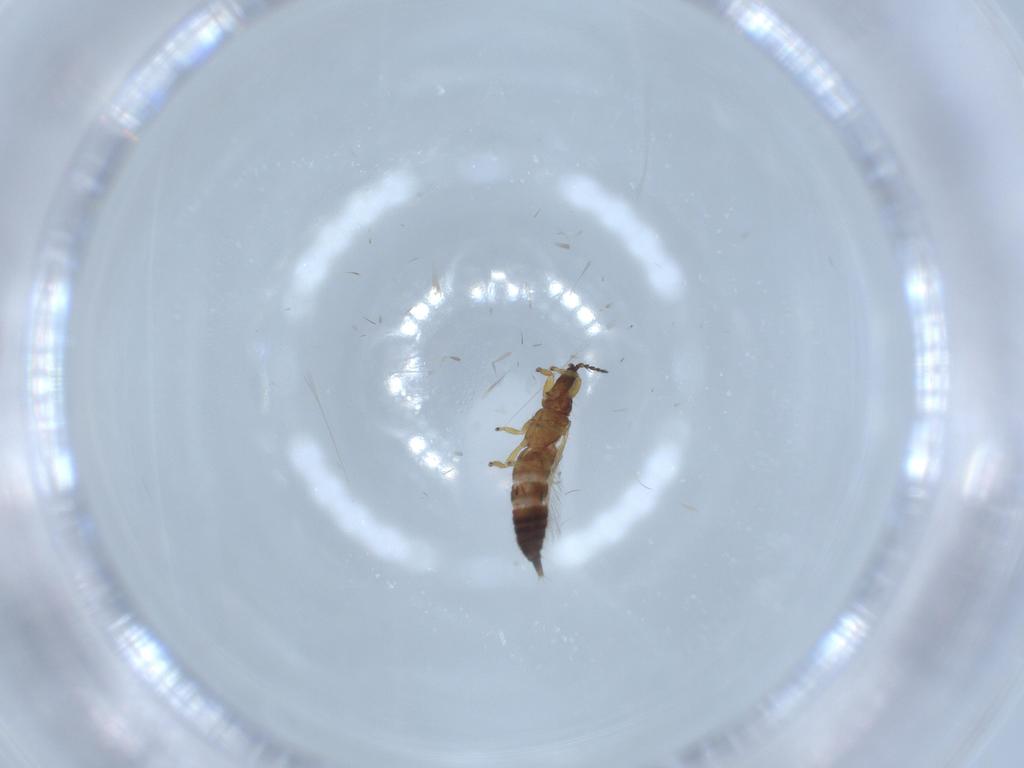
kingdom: Animalia
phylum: Arthropoda
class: Insecta
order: Thysanoptera
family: Phlaeothripidae
